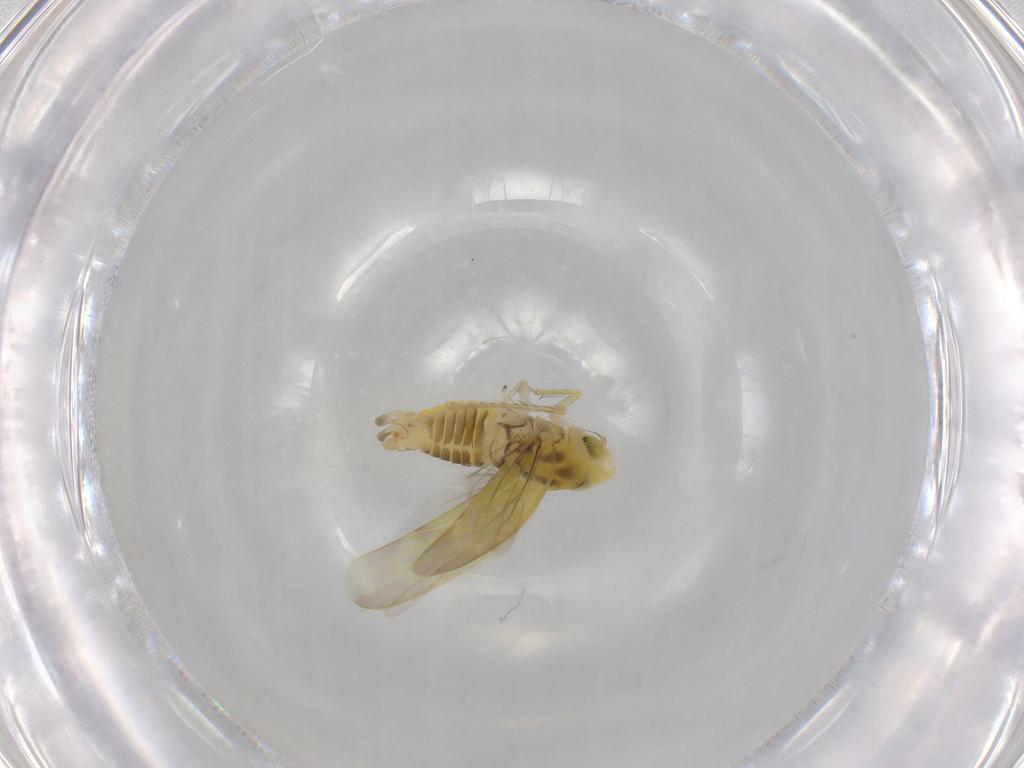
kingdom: Animalia
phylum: Arthropoda
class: Insecta
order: Hemiptera
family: Cicadellidae
